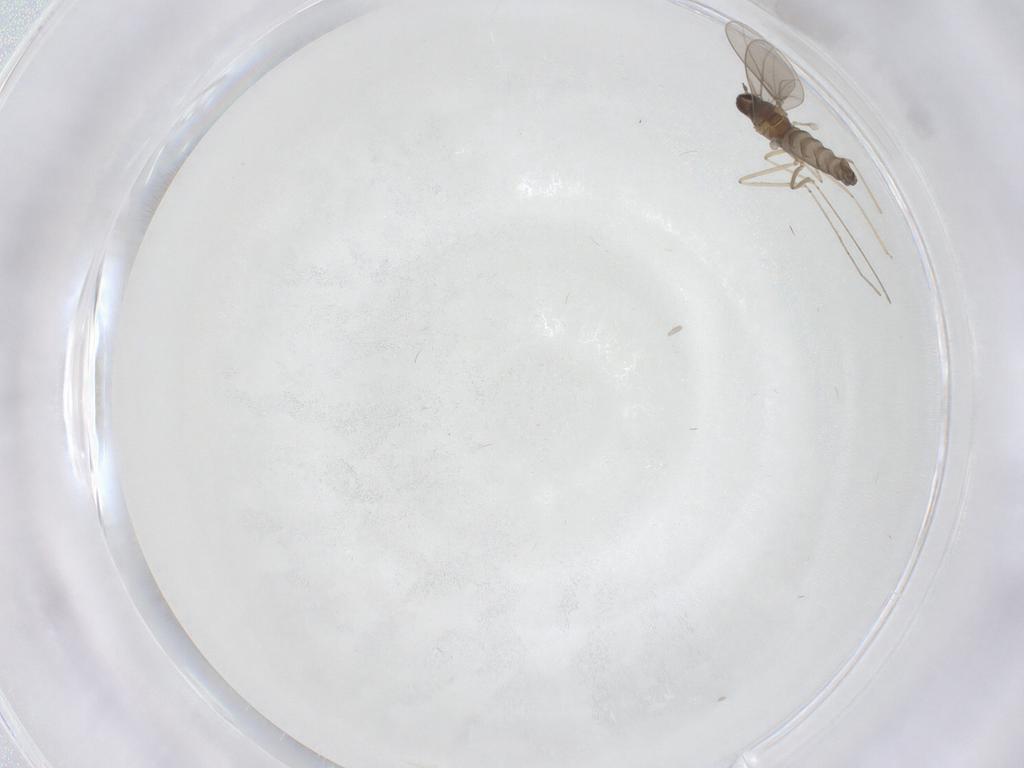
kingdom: Animalia
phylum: Arthropoda
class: Insecta
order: Diptera
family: Cecidomyiidae
